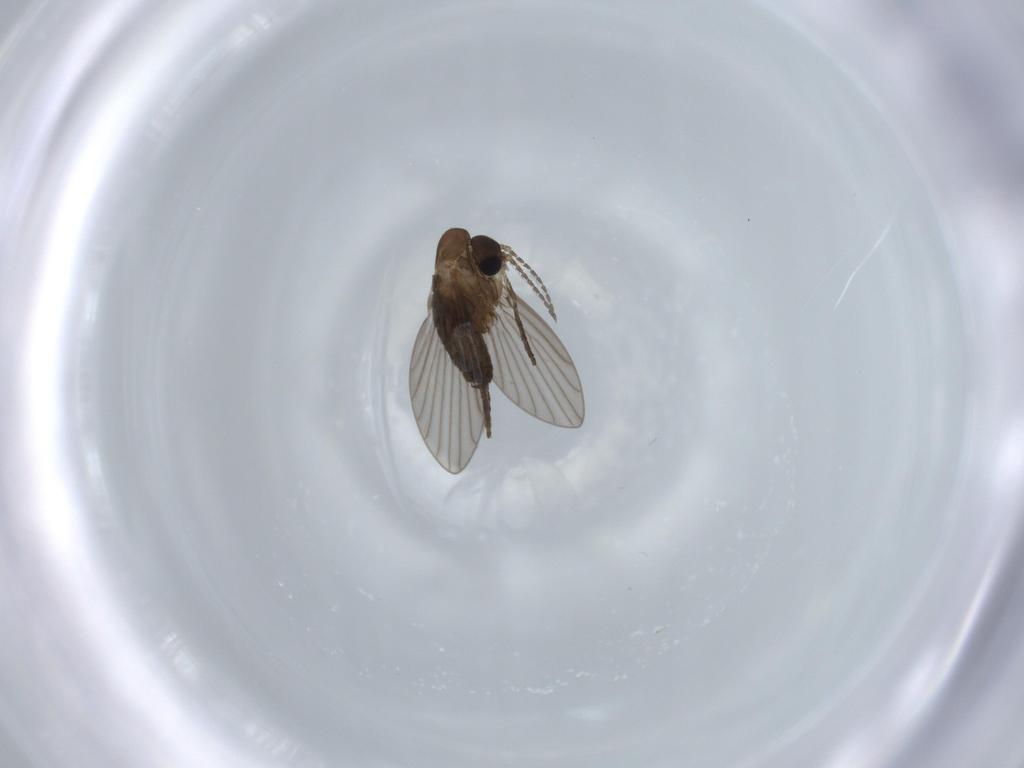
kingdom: Animalia
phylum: Arthropoda
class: Insecta
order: Diptera
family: Psychodidae
